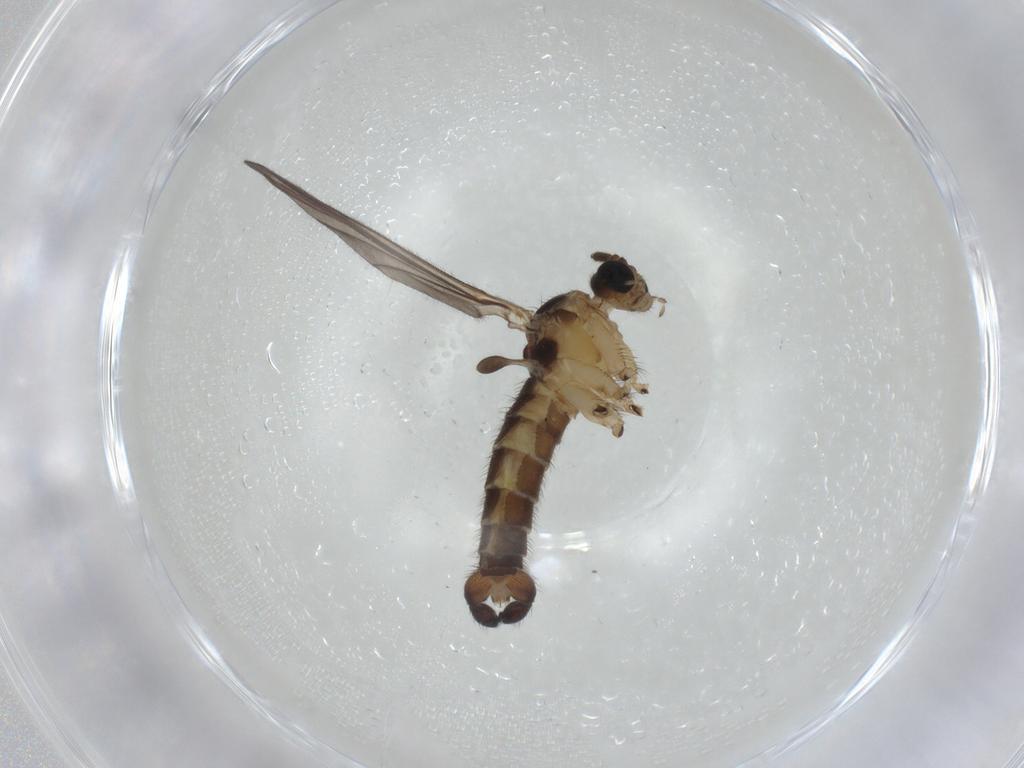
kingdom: Animalia
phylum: Arthropoda
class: Insecta
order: Diptera
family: Sciaridae
